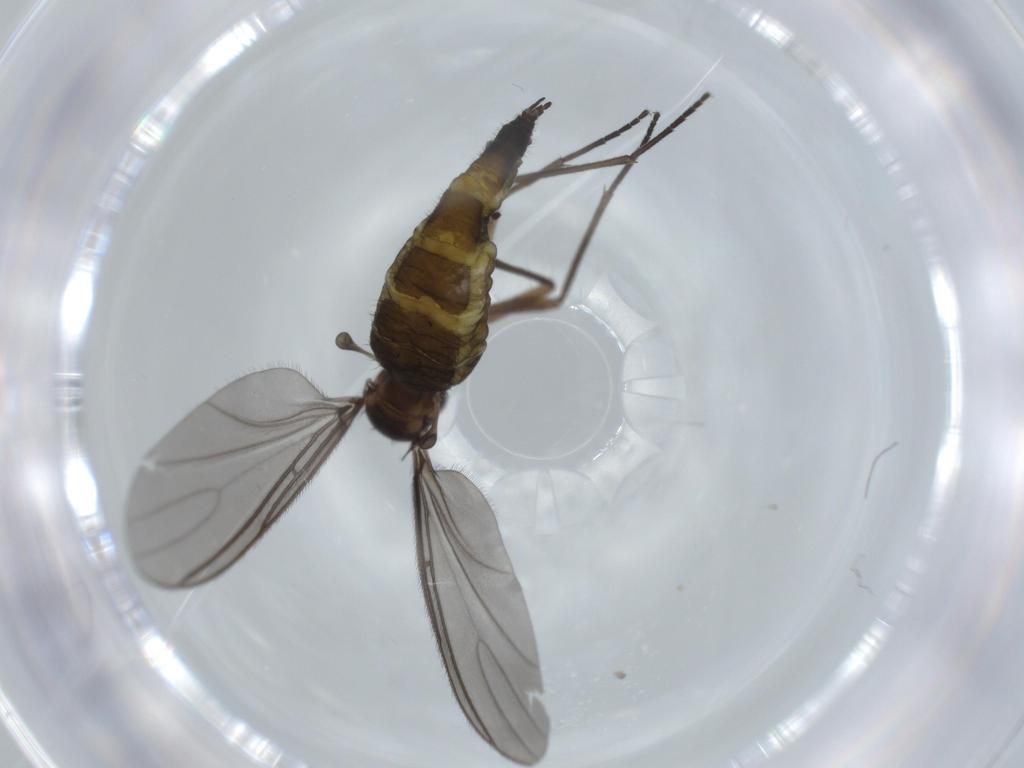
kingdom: Animalia
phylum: Arthropoda
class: Insecta
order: Diptera
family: Sciaridae
